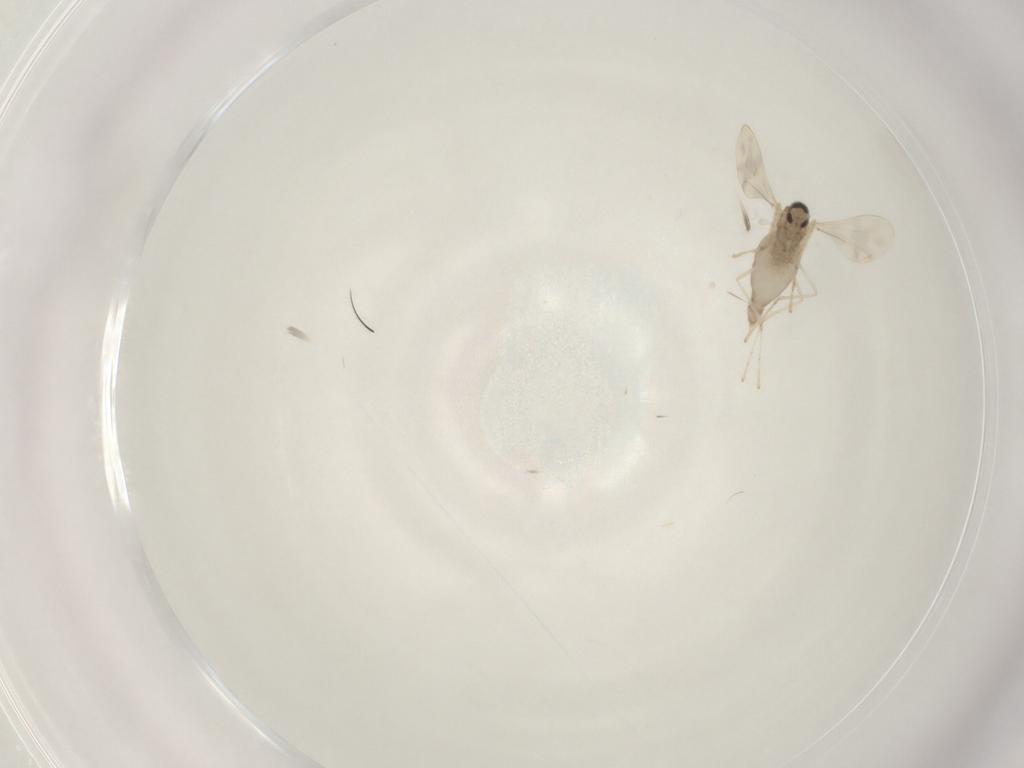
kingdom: Animalia
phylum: Arthropoda
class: Insecta
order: Diptera
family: Cecidomyiidae
